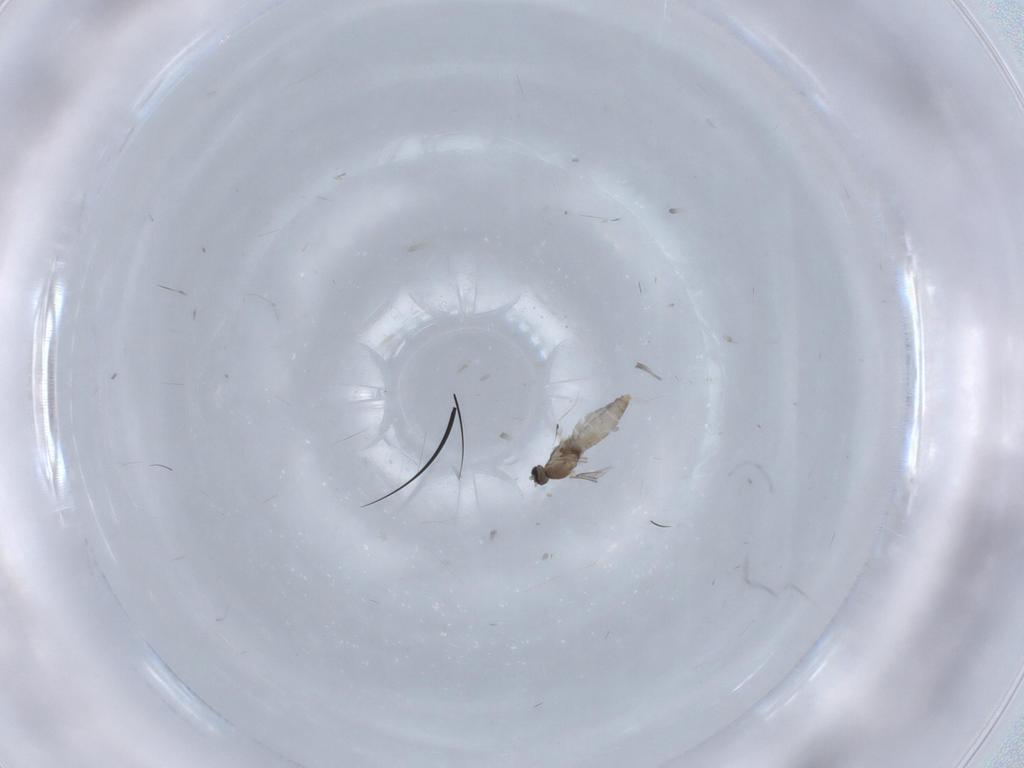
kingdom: Animalia
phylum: Arthropoda
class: Insecta
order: Diptera
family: Cecidomyiidae
